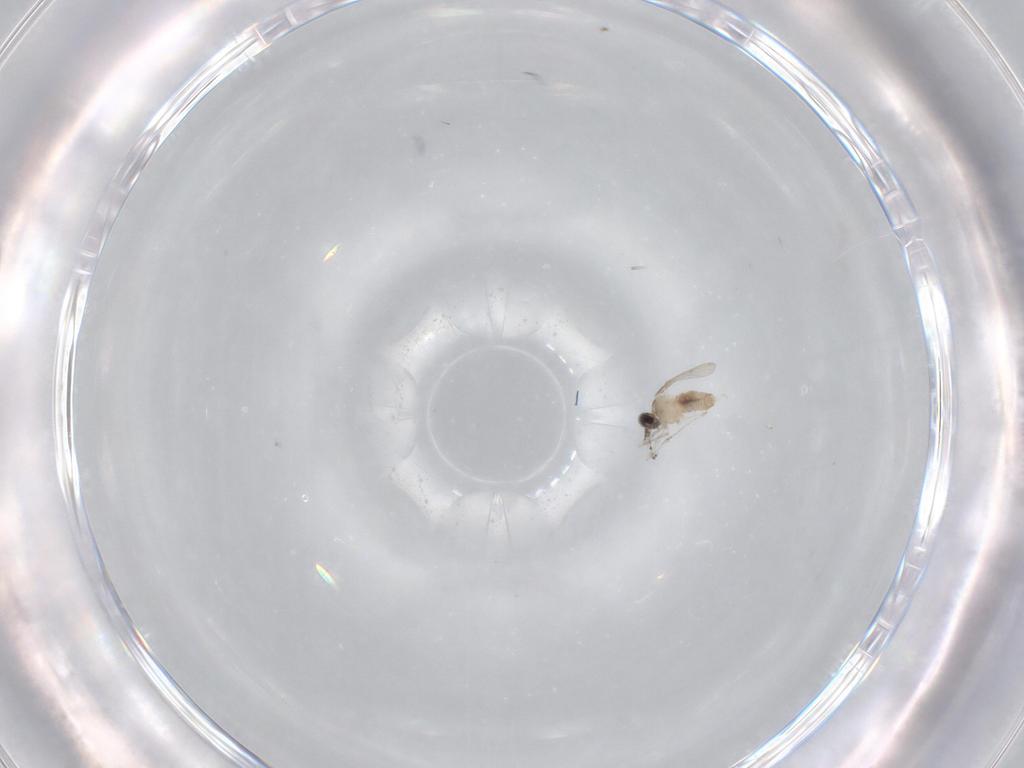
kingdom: Animalia
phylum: Arthropoda
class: Insecta
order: Diptera
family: Cecidomyiidae
